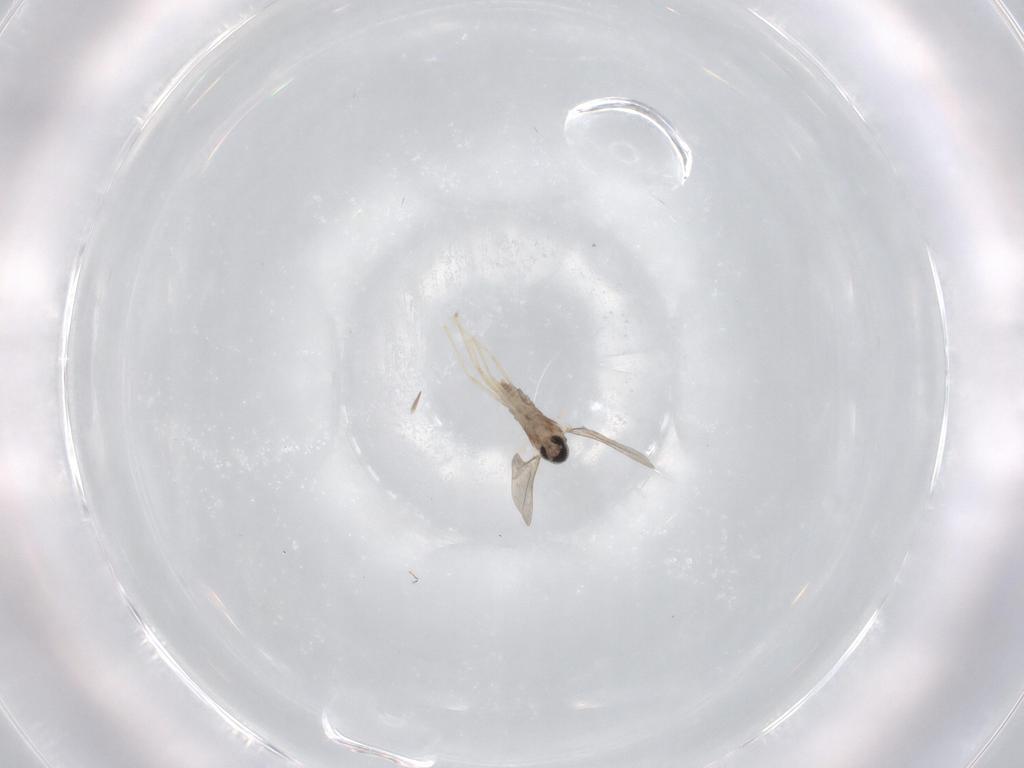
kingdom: Animalia
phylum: Arthropoda
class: Insecta
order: Diptera
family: Cecidomyiidae
